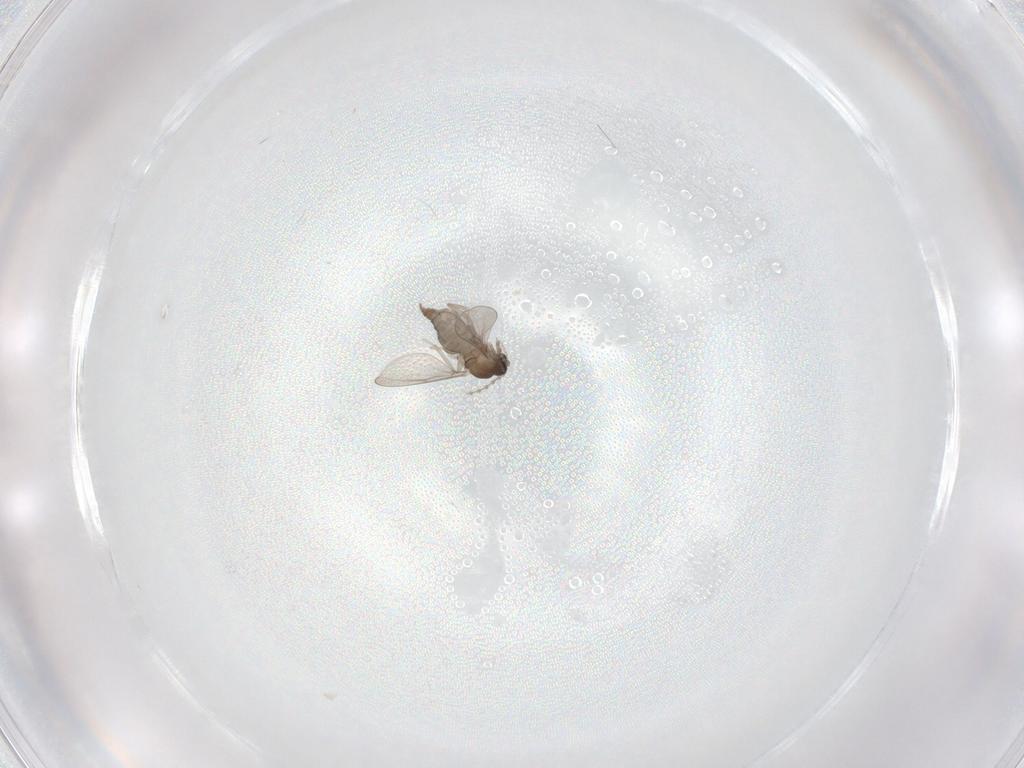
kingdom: Animalia
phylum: Arthropoda
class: Insecta
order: Diptera
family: Cecidomyiidae
